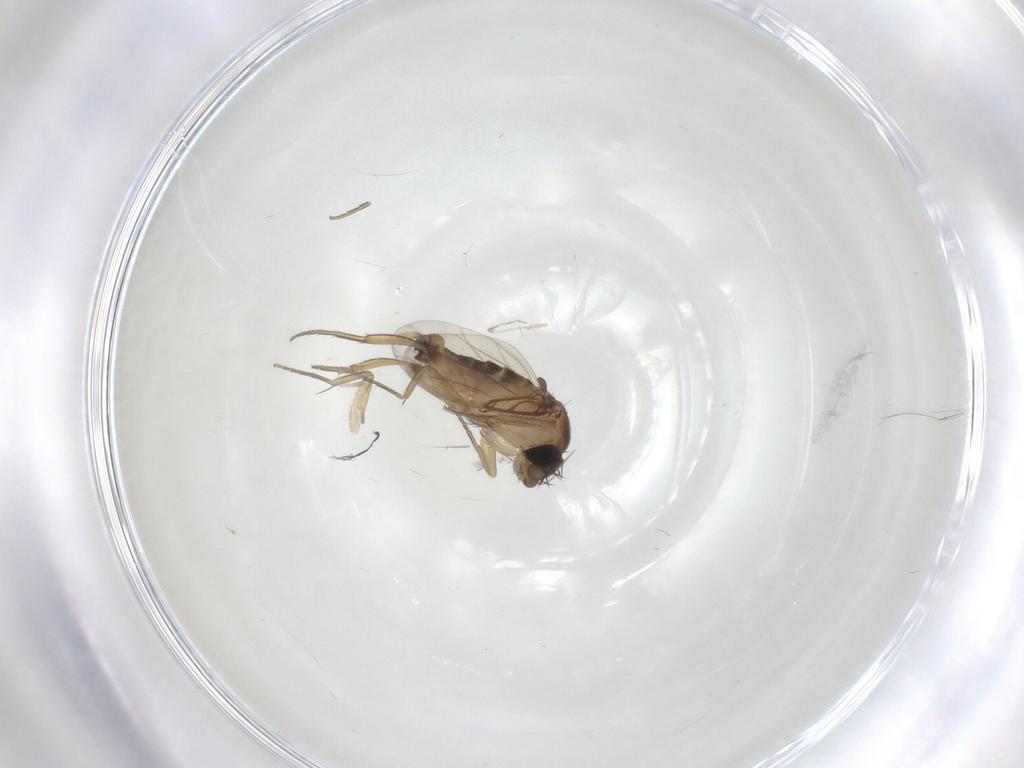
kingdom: Animalia
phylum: Arthropoda
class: Insecta
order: Diptera
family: Phoridae
